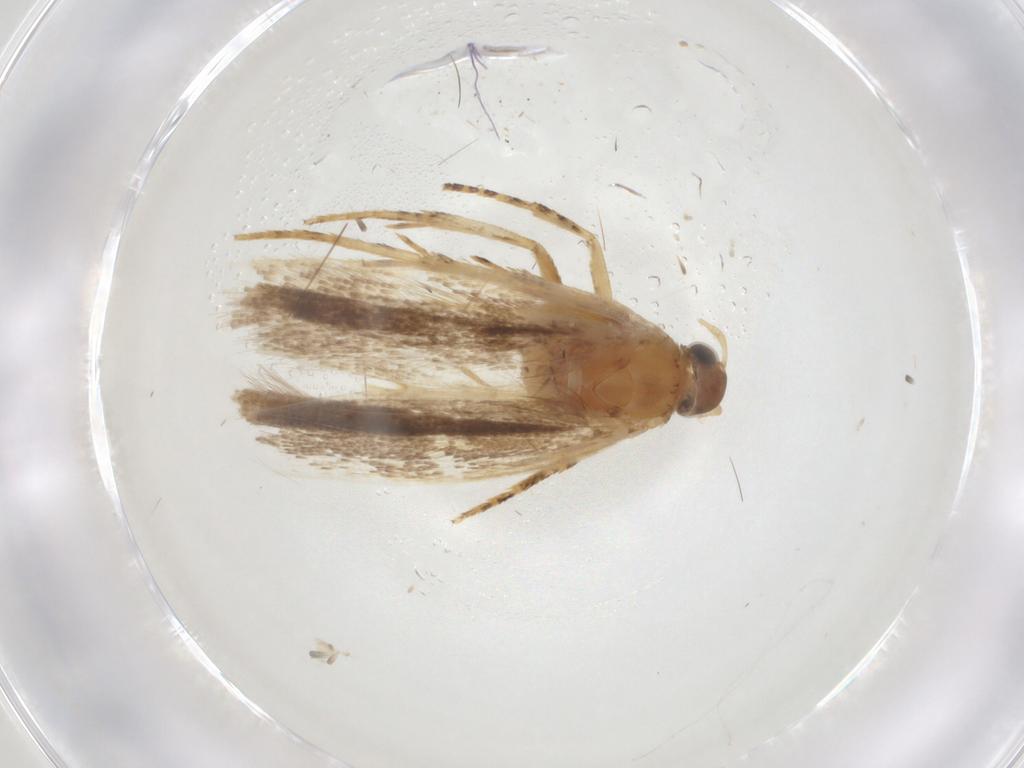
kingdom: Animalia
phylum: Arthropoda
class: Insecta
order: Lepidoptera
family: Gelechiidae
